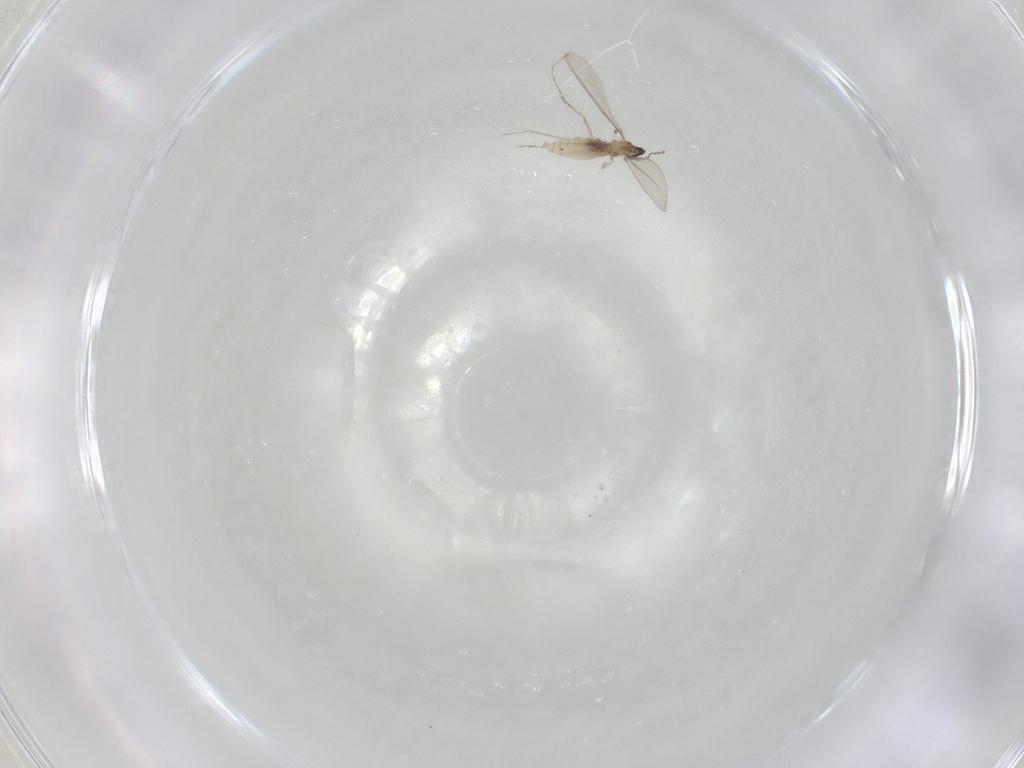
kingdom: Animalia
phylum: Arthropoda
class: Insecta
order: Diptera
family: Cecidomyiidae
